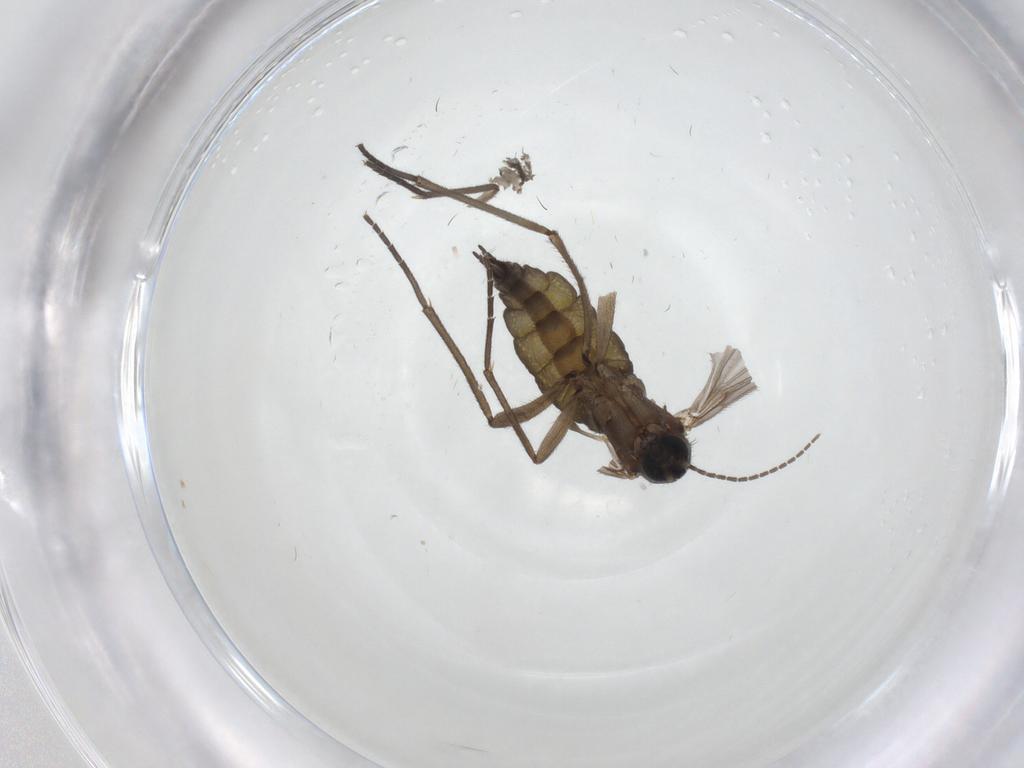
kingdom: Animalia
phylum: Arthropoda
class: Insecta
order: Diptera
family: Sciaridae
